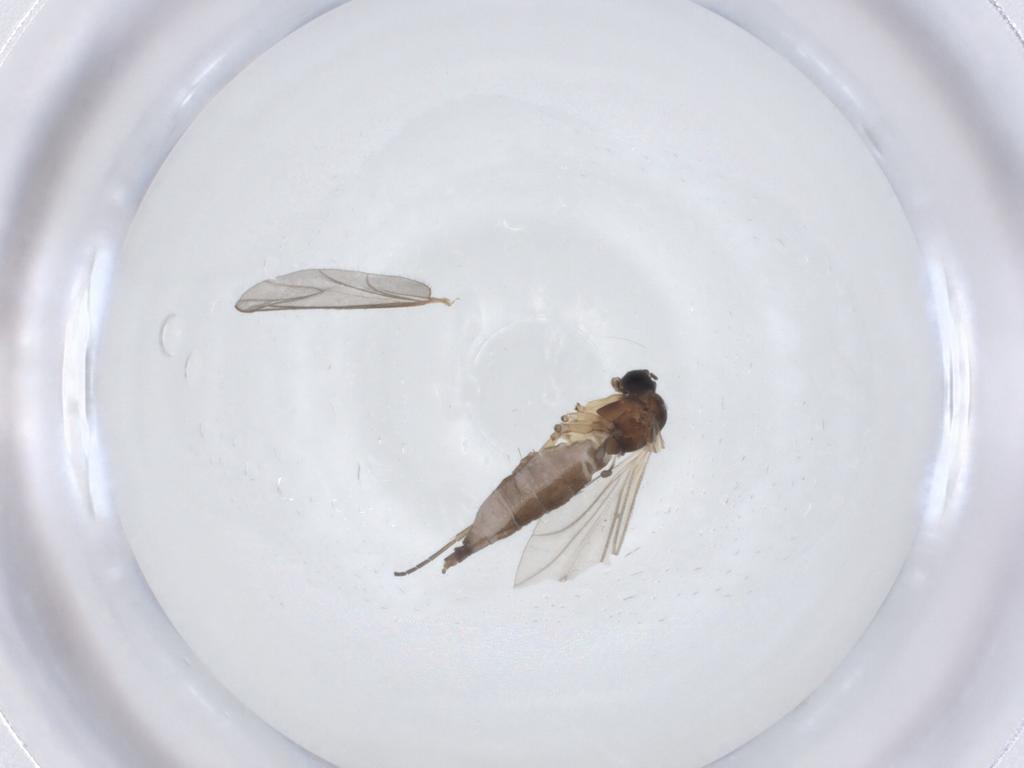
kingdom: Animalia
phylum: Arthropoda
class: Insecta
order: Diptera
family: Sciaridae
